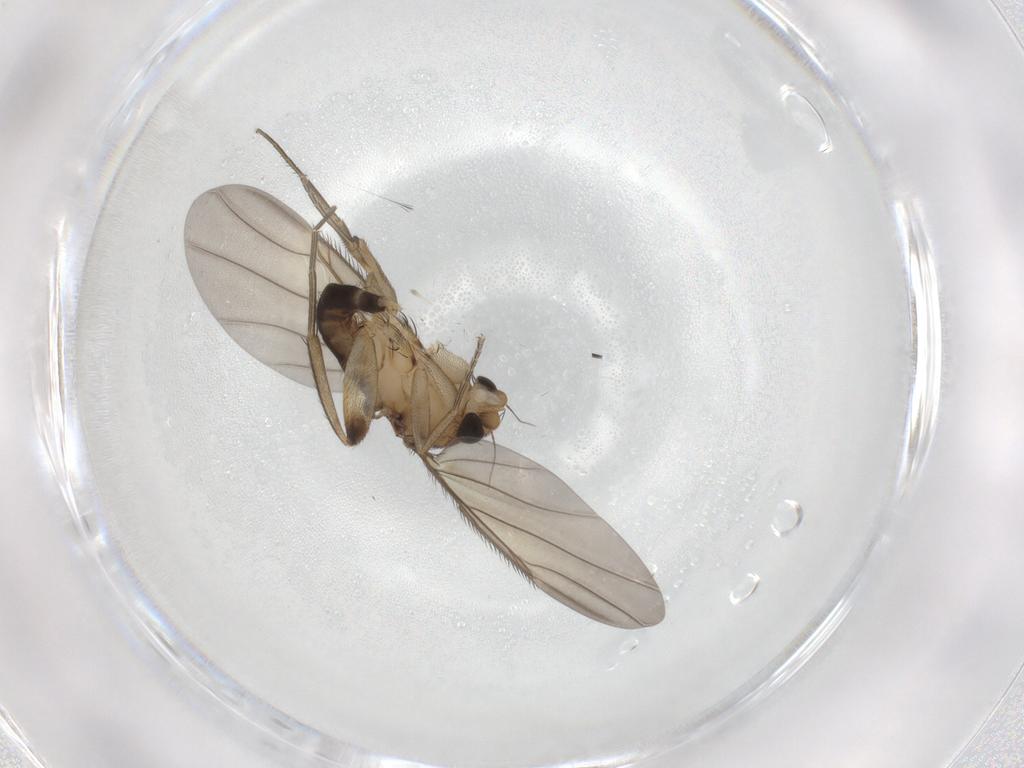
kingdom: Animalia
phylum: Arthropoda
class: Insecta
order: Diptera
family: Phoridae
